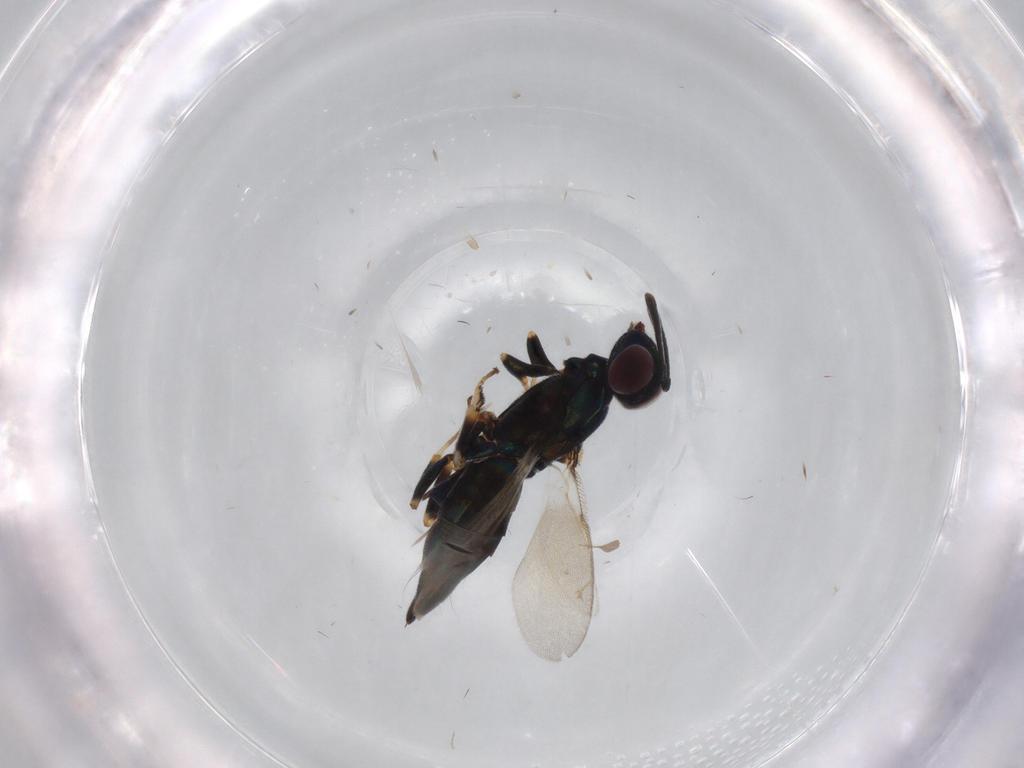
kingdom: Animalia
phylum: Arthropoda
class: Insecta
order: Hymenoptera
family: Eupelmidae
